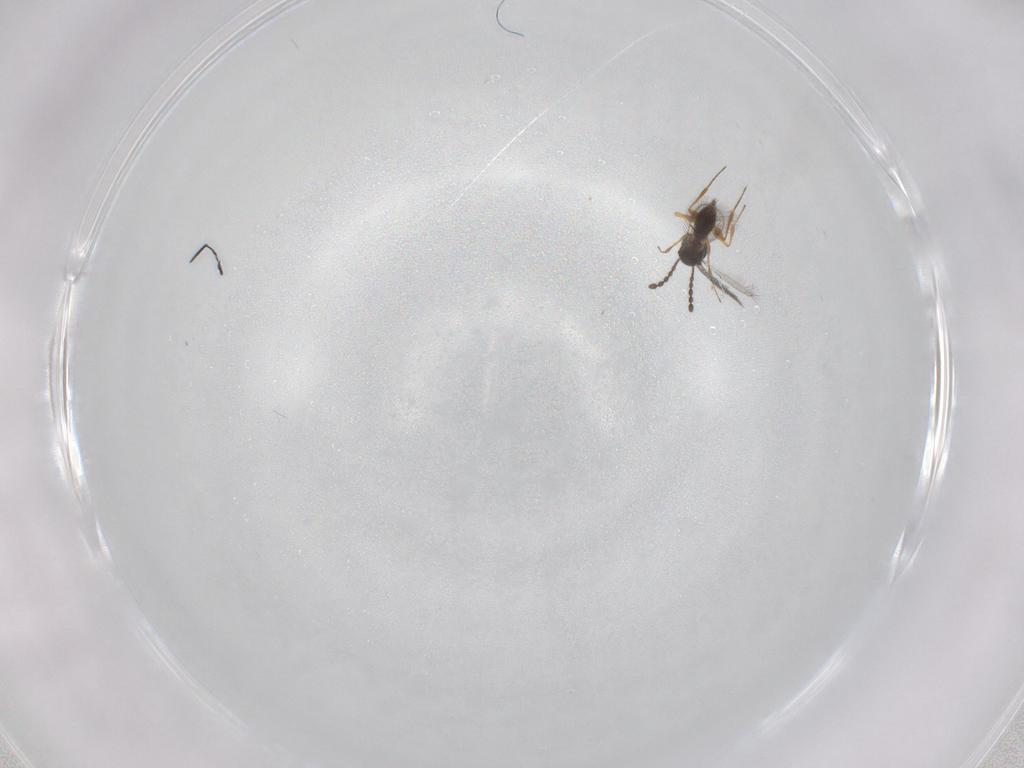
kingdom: Animalia
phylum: Arthropoda
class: Insecta
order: Hymenoptera
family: Figitidae
